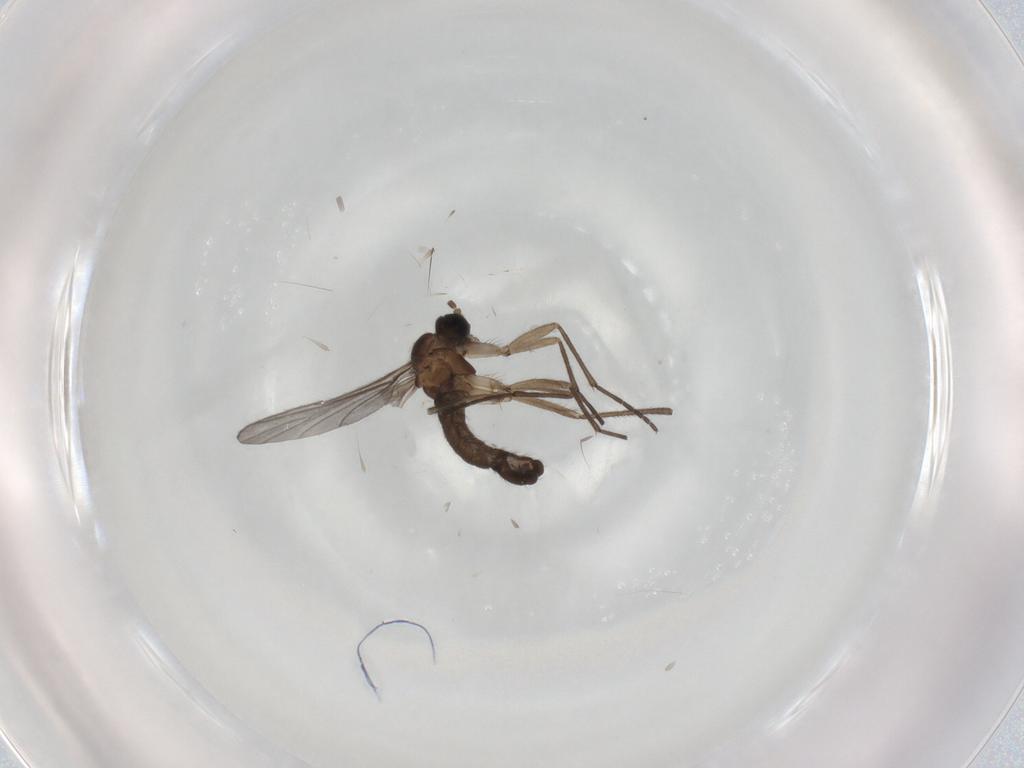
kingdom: Animalia
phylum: Arthropoda
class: Insecta
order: Diptera
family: Sciaridae
